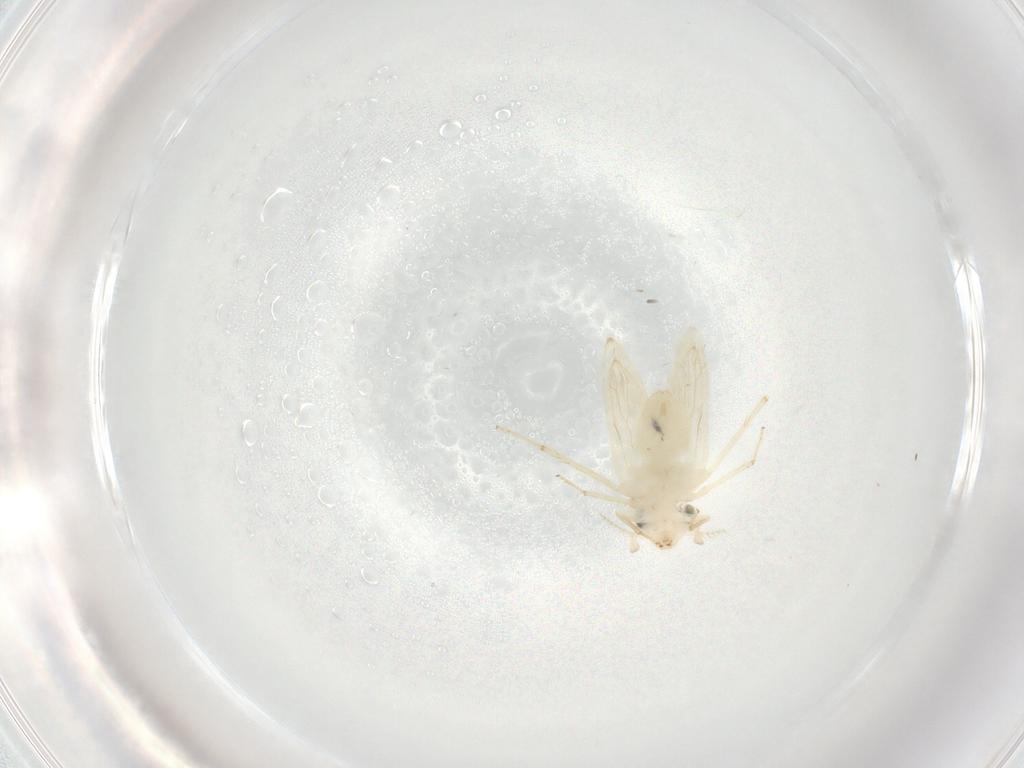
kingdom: Animalia
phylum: Arthropoda
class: Insecta
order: Psocodea
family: Lepidopsocidae
